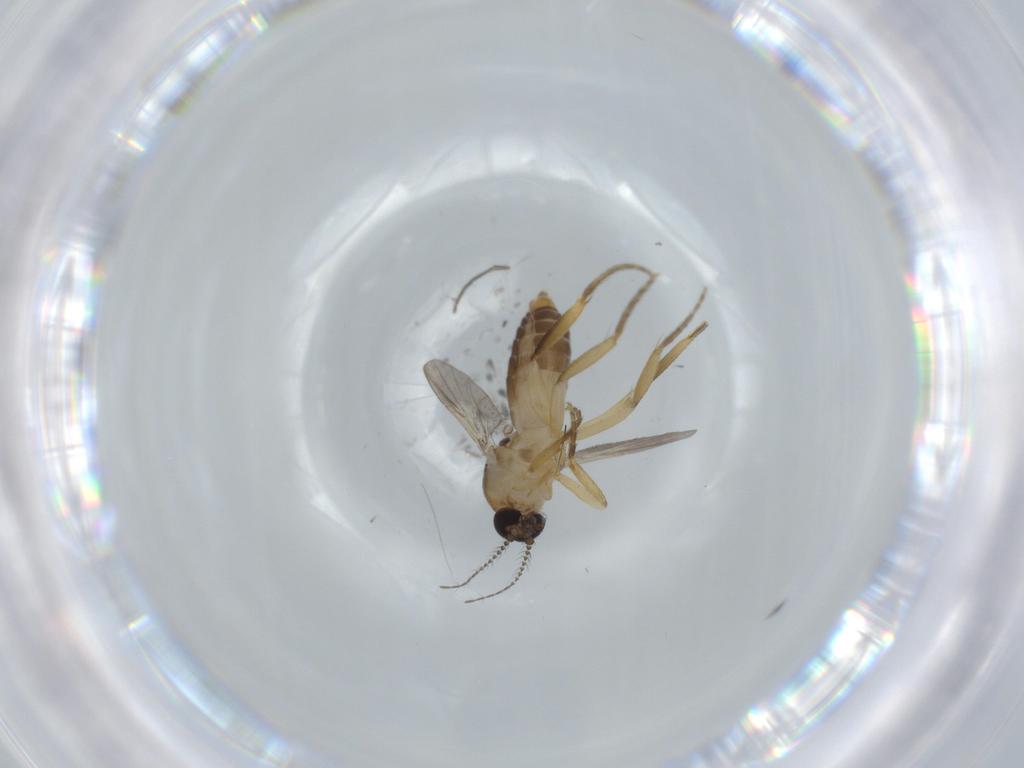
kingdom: Animalia
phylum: Arthropoda
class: Insecta
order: Diptera
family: Ceratopogonidae
